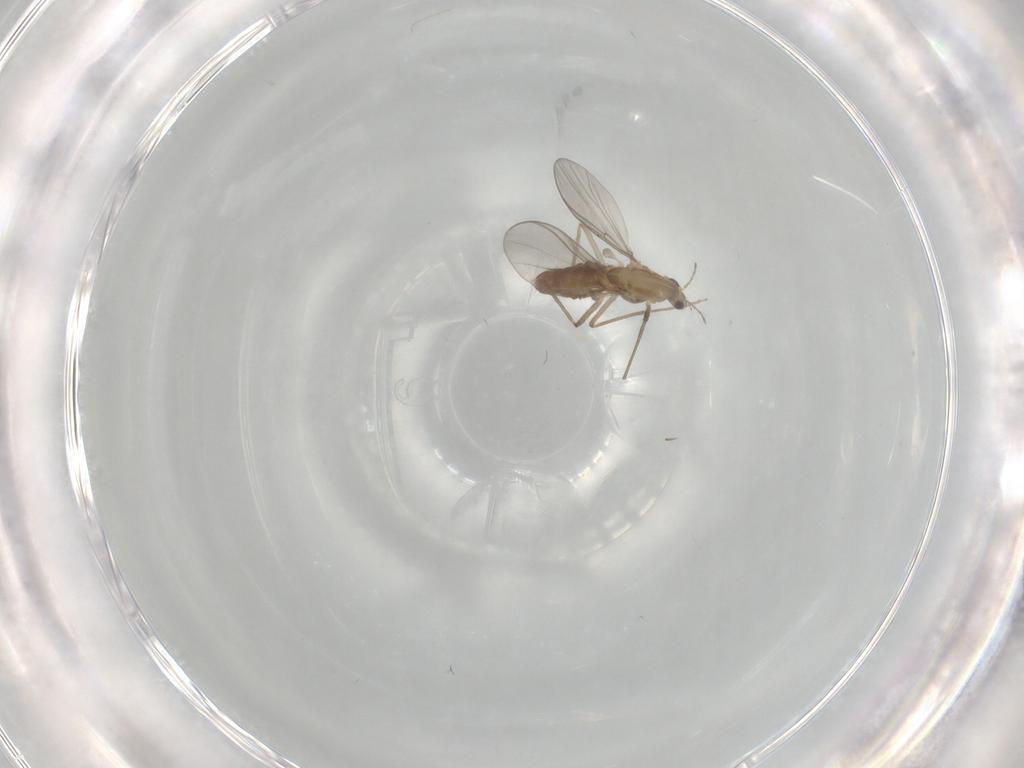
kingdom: Animalia
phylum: Arthropoda
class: Insecta
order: Diptera
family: Chironomidae
